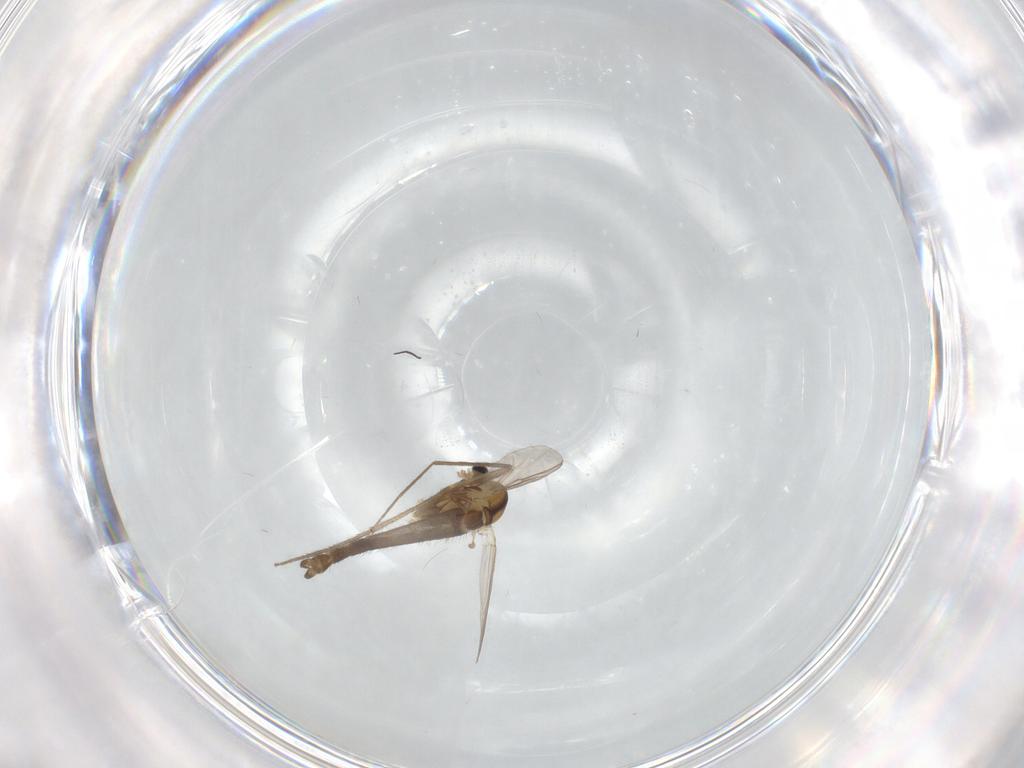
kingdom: Animalia
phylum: Arthropoda
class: Insecta
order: Diptera
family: Chironomidae
